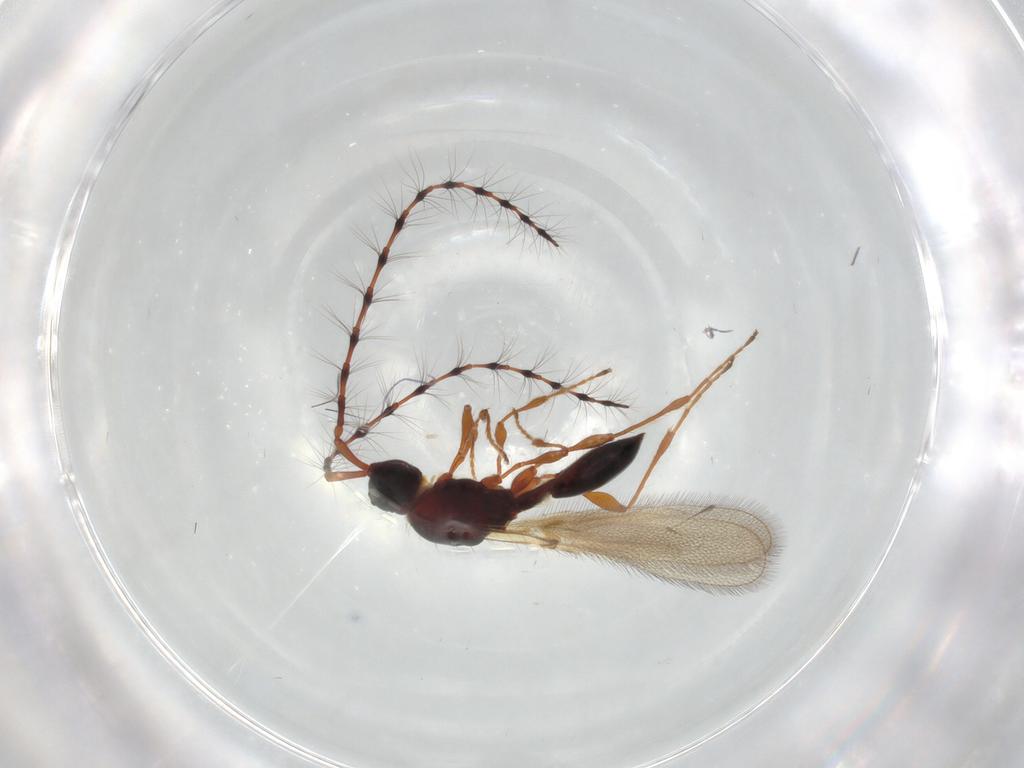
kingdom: Animalia
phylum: Arthropoda
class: Insecta
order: Hymenoptera
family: Diapriidae
